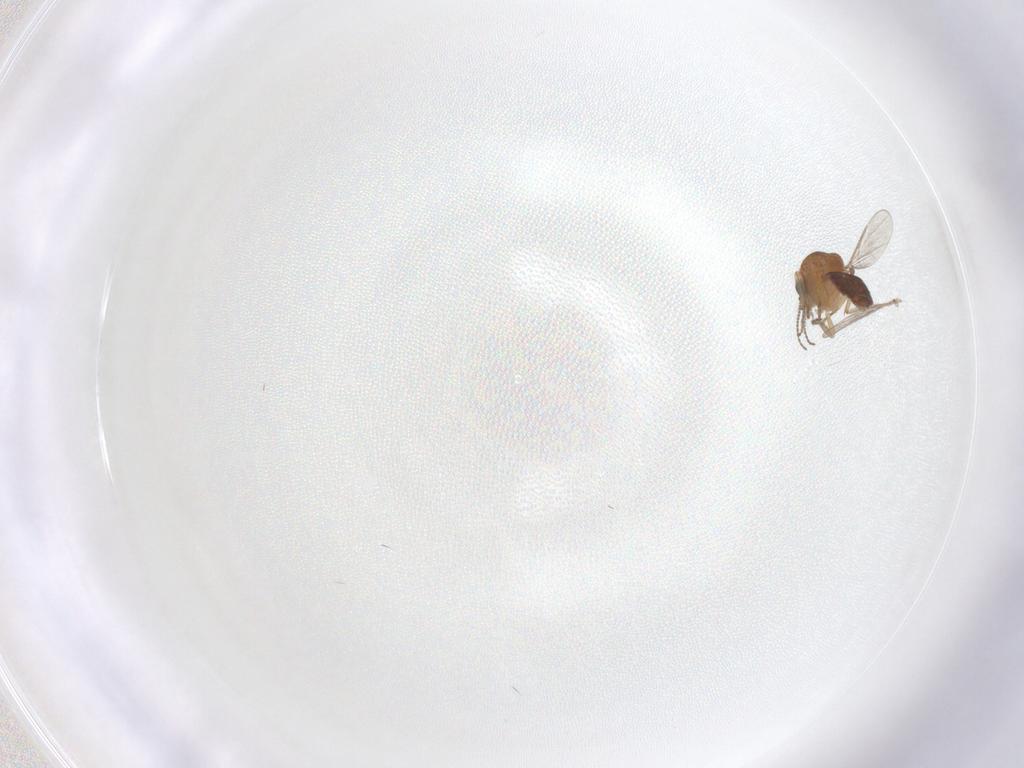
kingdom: Animalia
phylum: Arthropoda
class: Insecta
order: Diptera
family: Ceratopogonidae
